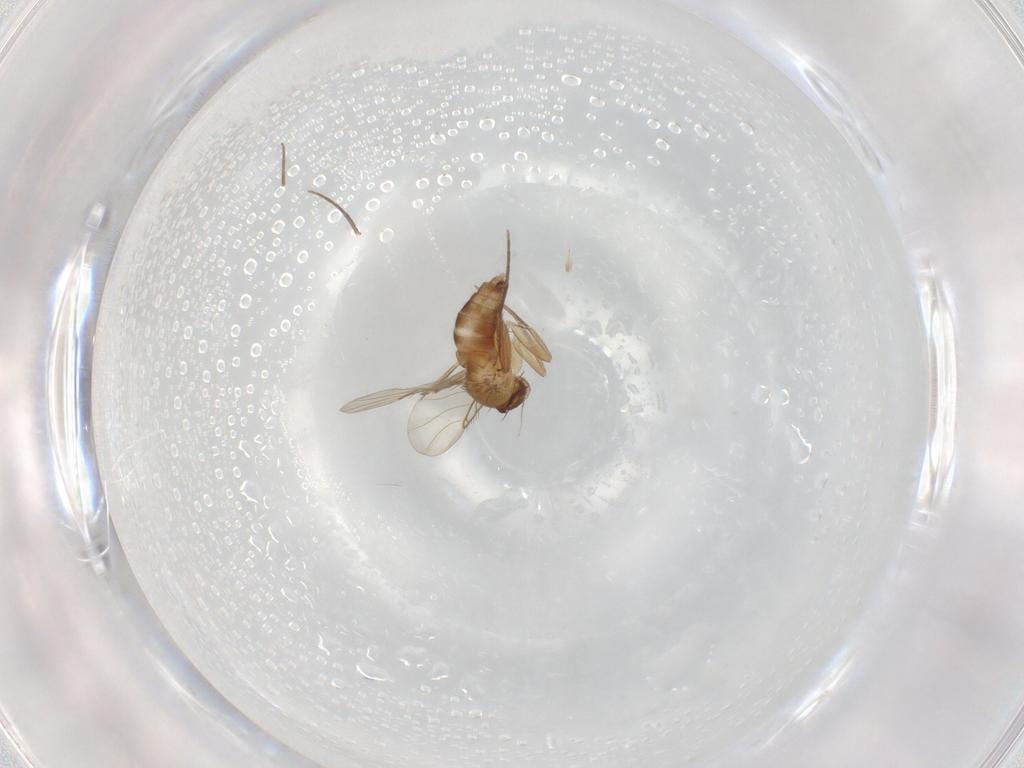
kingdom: Animalia
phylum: Arthropoda
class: Insecta
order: Diptera
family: Phoridae
